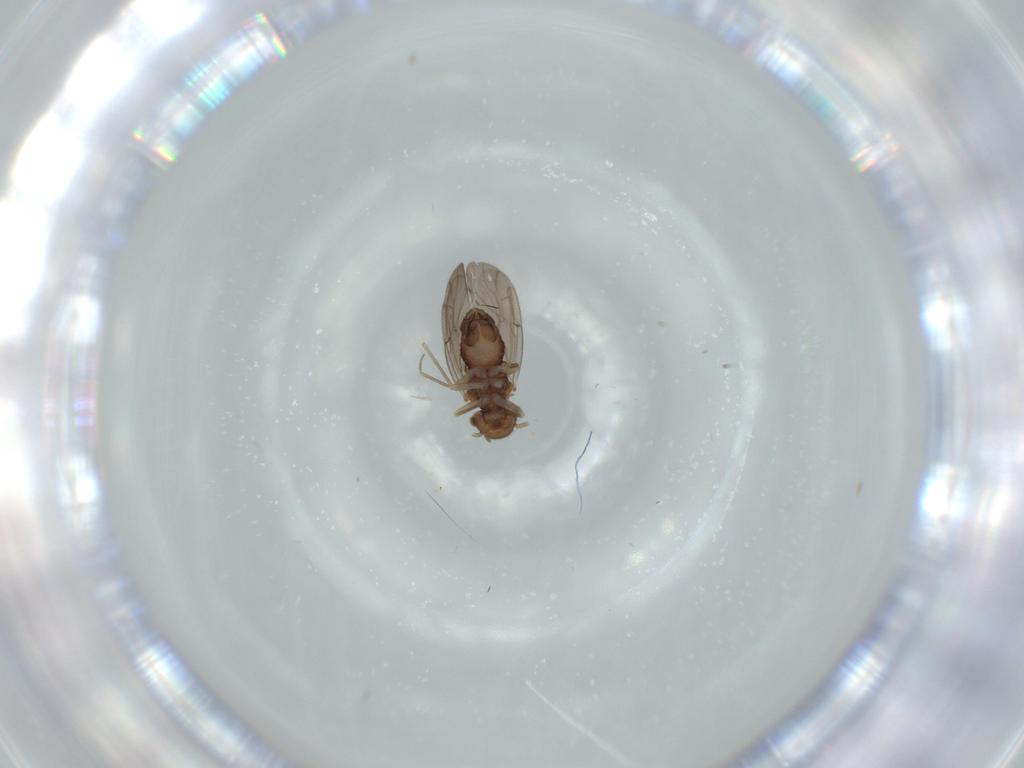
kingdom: Animalia
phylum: Arthropoda
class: Insecta
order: Psocodea
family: Ectopsocidae
